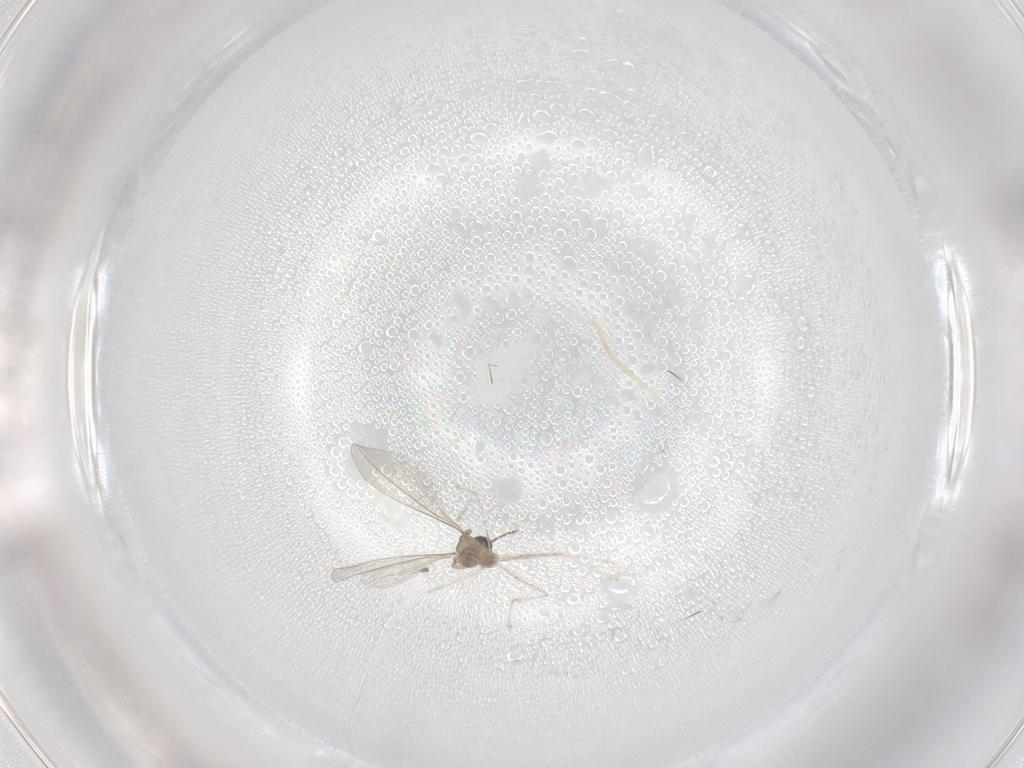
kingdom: Animalia
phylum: Arthropoda
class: Insecta
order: Diptera
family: Cecidomyiidae
